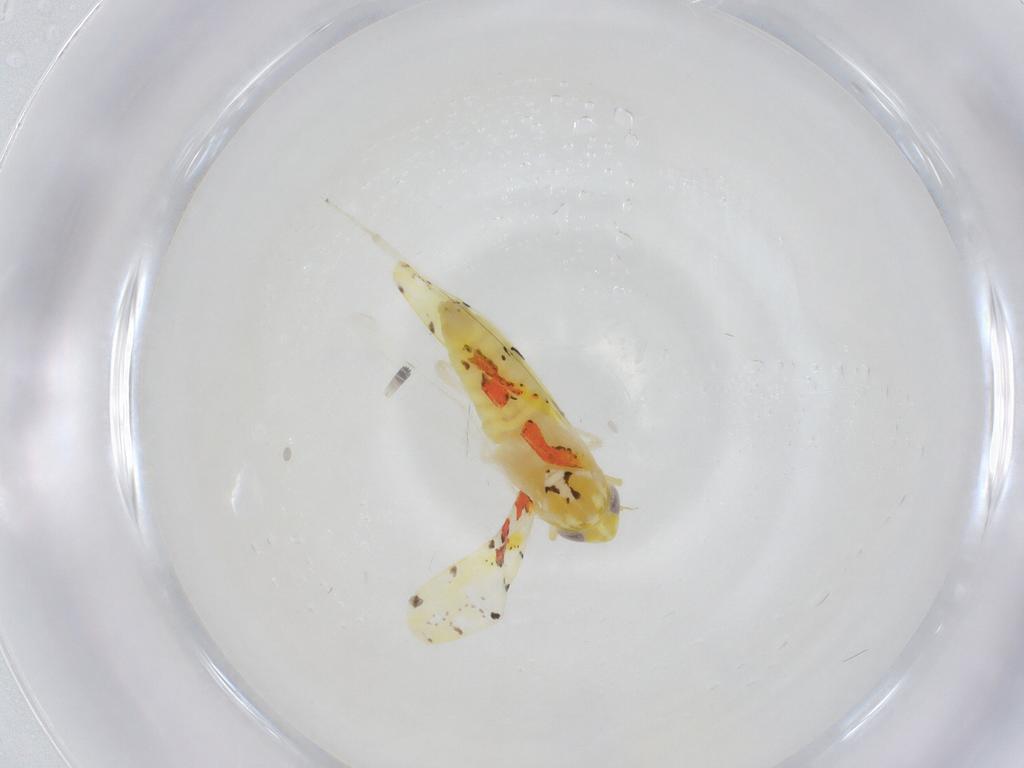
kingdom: Animalia
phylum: Arthropoda
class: Insecta
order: Hemiptera
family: Cicadellidae
